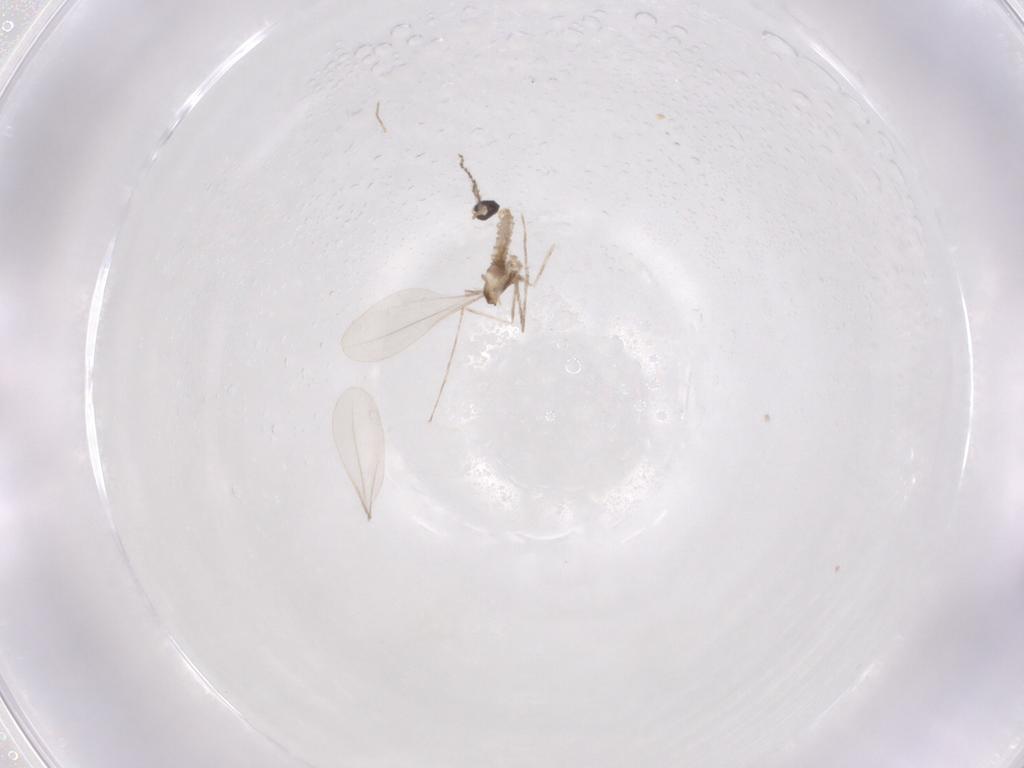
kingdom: Animalia
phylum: Arthropoda
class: Insecta
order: Diptera
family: Cecidomyiidae
